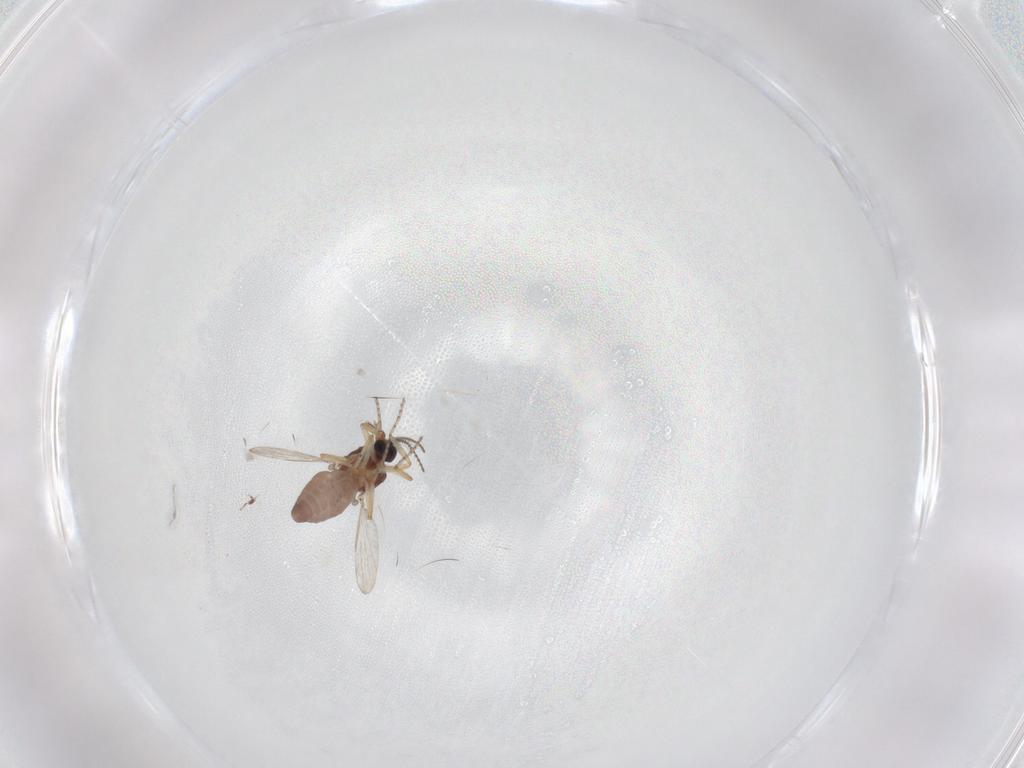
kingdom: Animalia
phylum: Arthropoda
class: Insecta
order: Diptera
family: Ceratopogonidae
